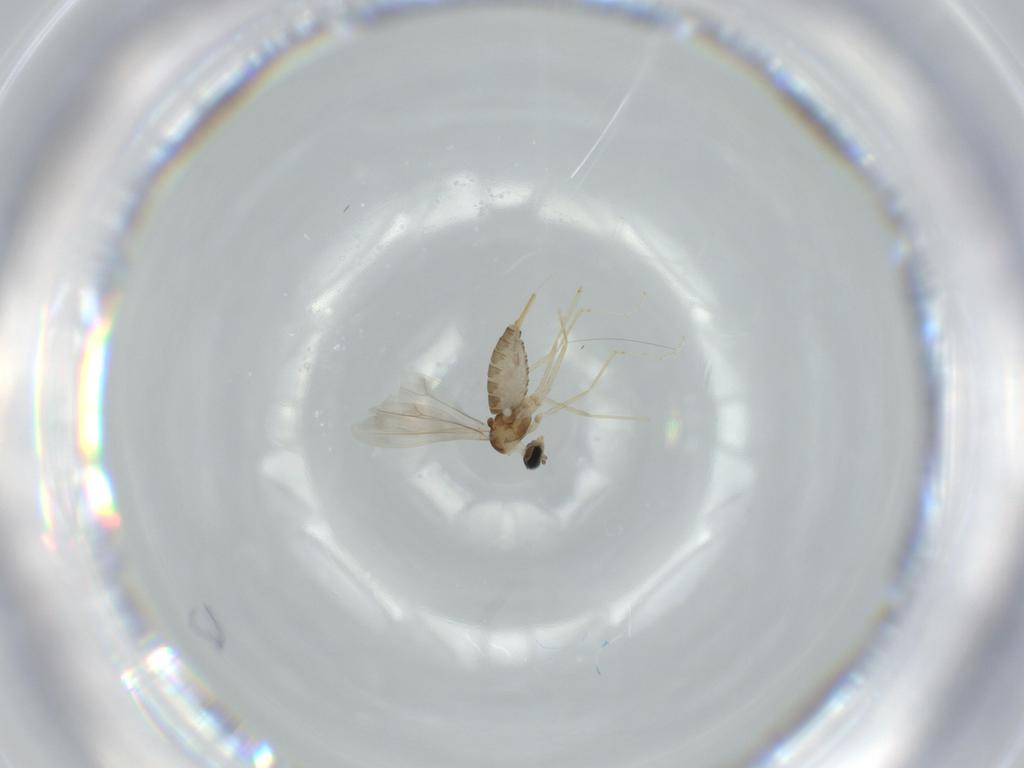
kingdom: Animalia
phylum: Arthropoda
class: Insecta
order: Diptera
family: Cecidomyiidae
